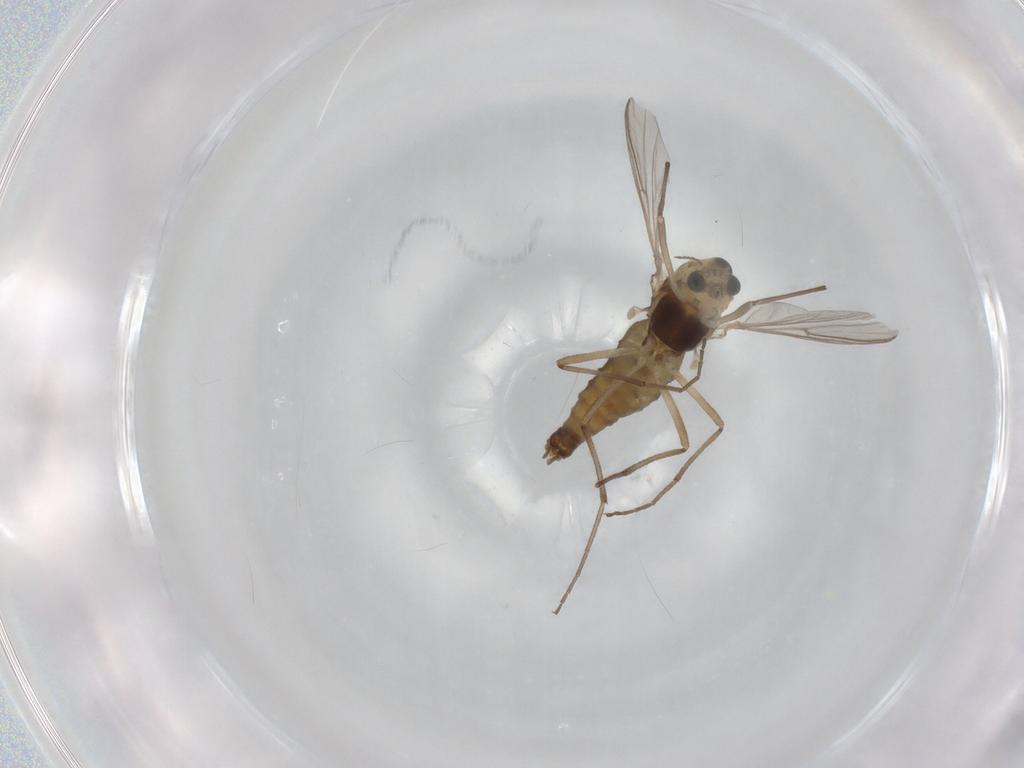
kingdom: Animalia
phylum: Arthropoda
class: Insecta
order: Diptera
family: Chironomidae
